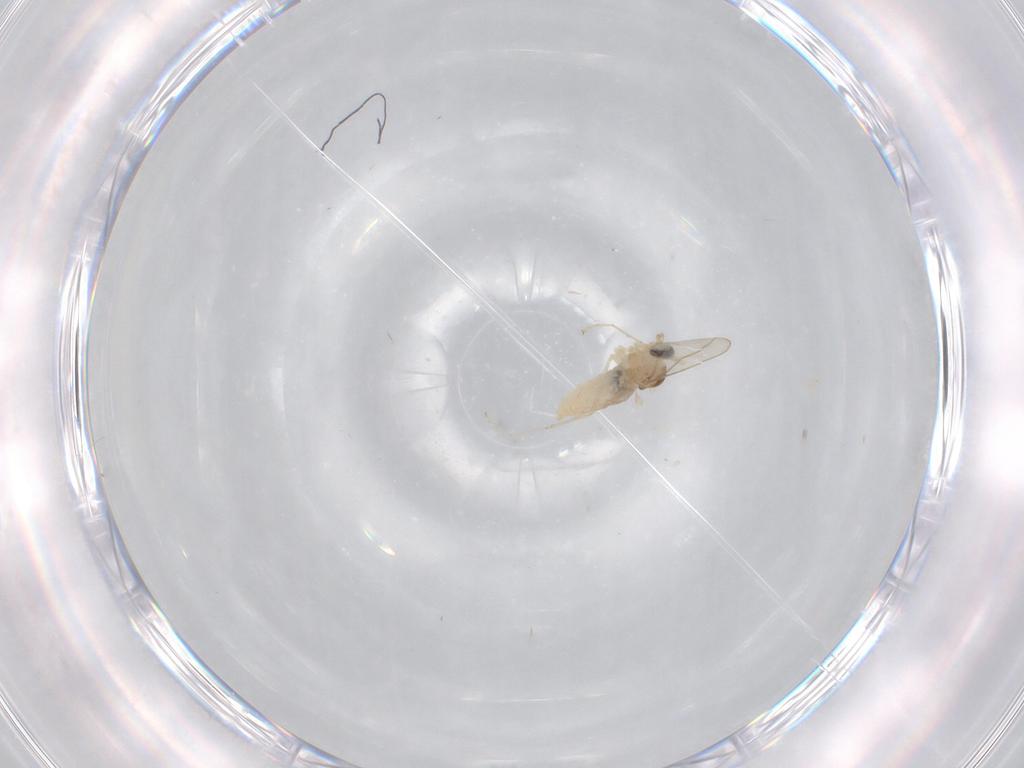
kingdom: Animalia
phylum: Arthropoda
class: Insecta
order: Diptera
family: Cecidomyiidae
